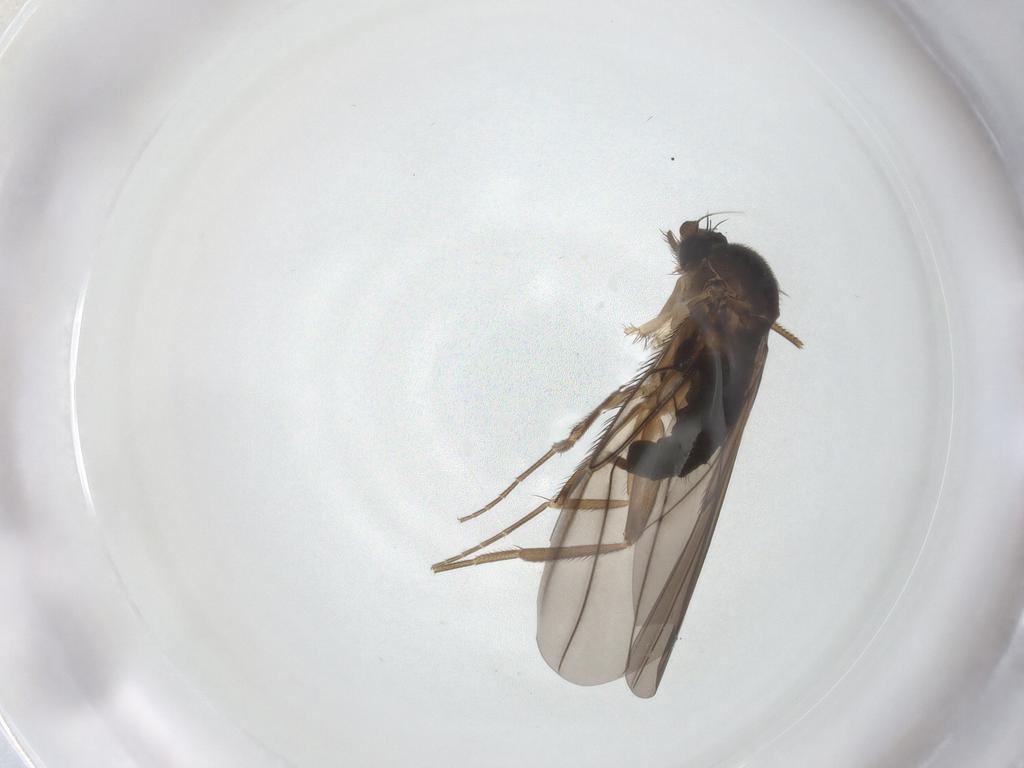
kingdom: Animalia
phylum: Arthropoda
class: Insecta
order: Diptera
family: Phoridae
